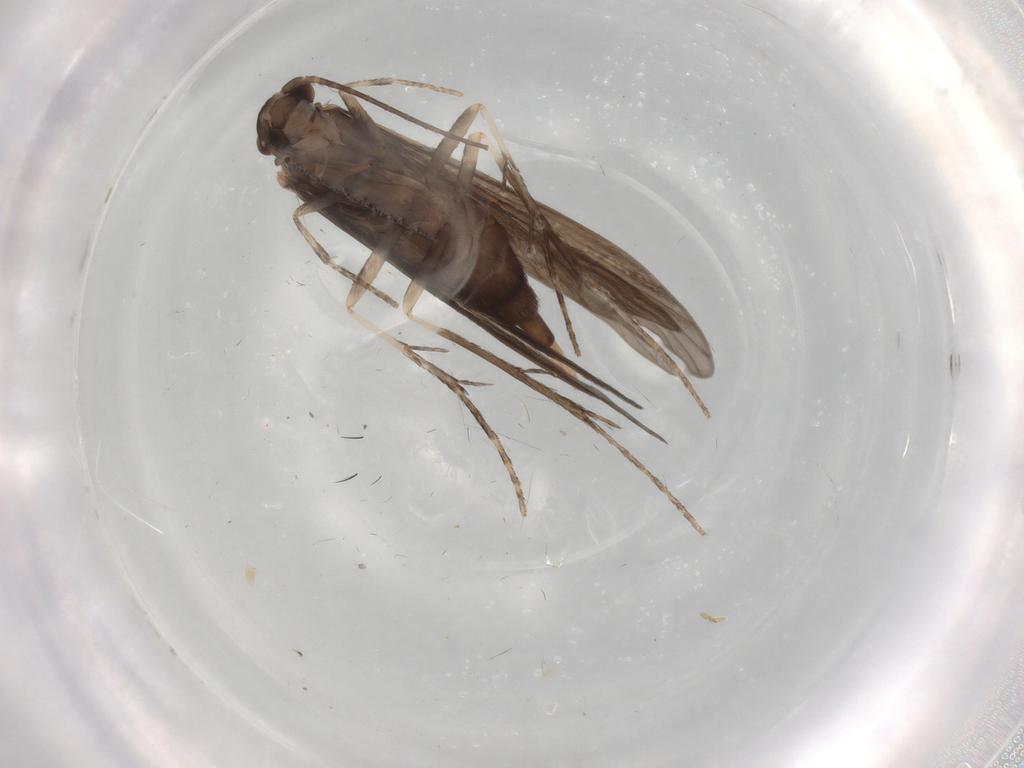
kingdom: Animalia
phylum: Arthropoda
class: Insecta
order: Trichoptera
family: Xiphocentronidae
